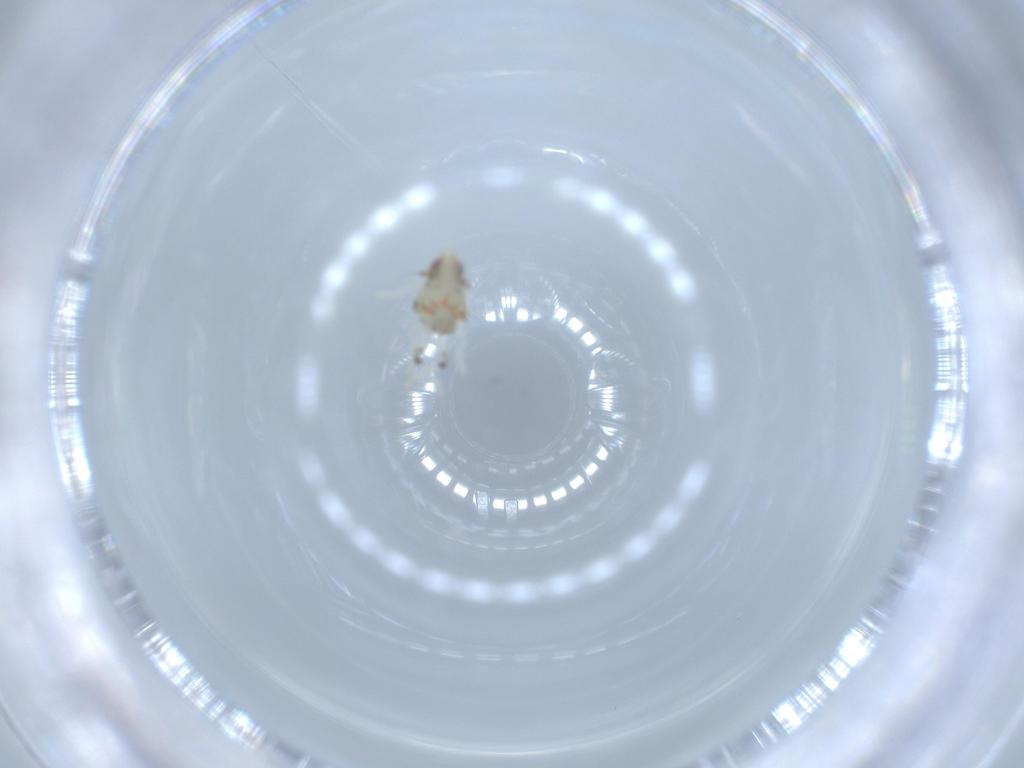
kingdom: Animalia
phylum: Arthropoda
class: Insecta
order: Hemiptera
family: Nogodinidae
